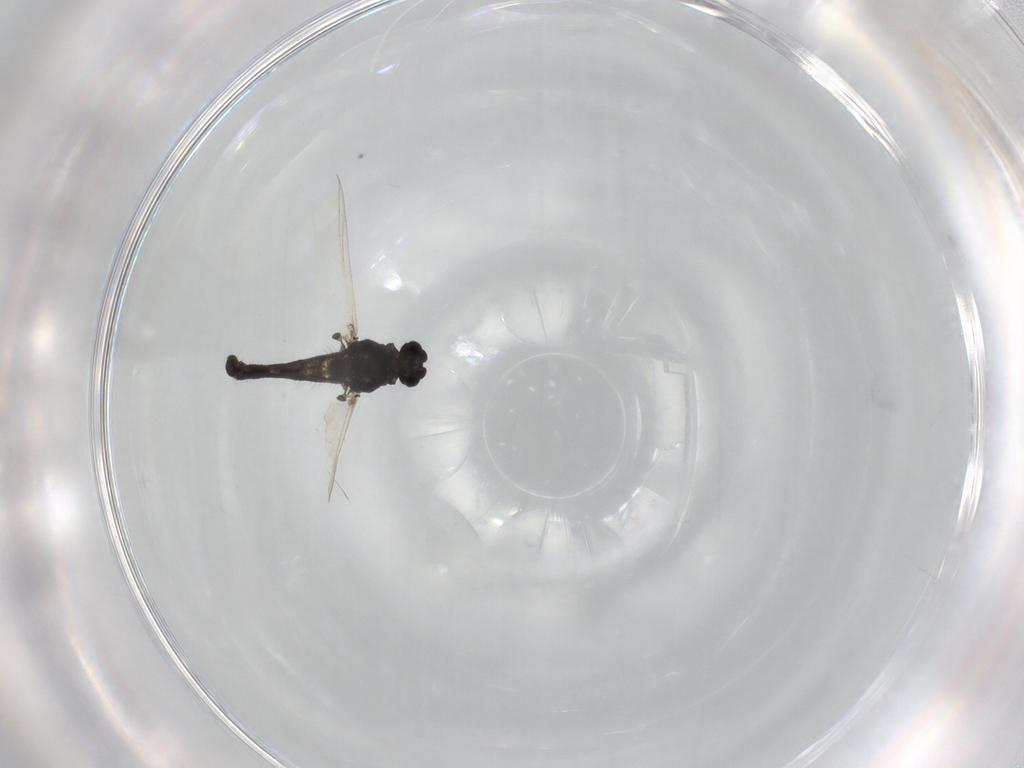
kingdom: Animalia
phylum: Arthropoda
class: Insecta
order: Diptera
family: Sciaridae
